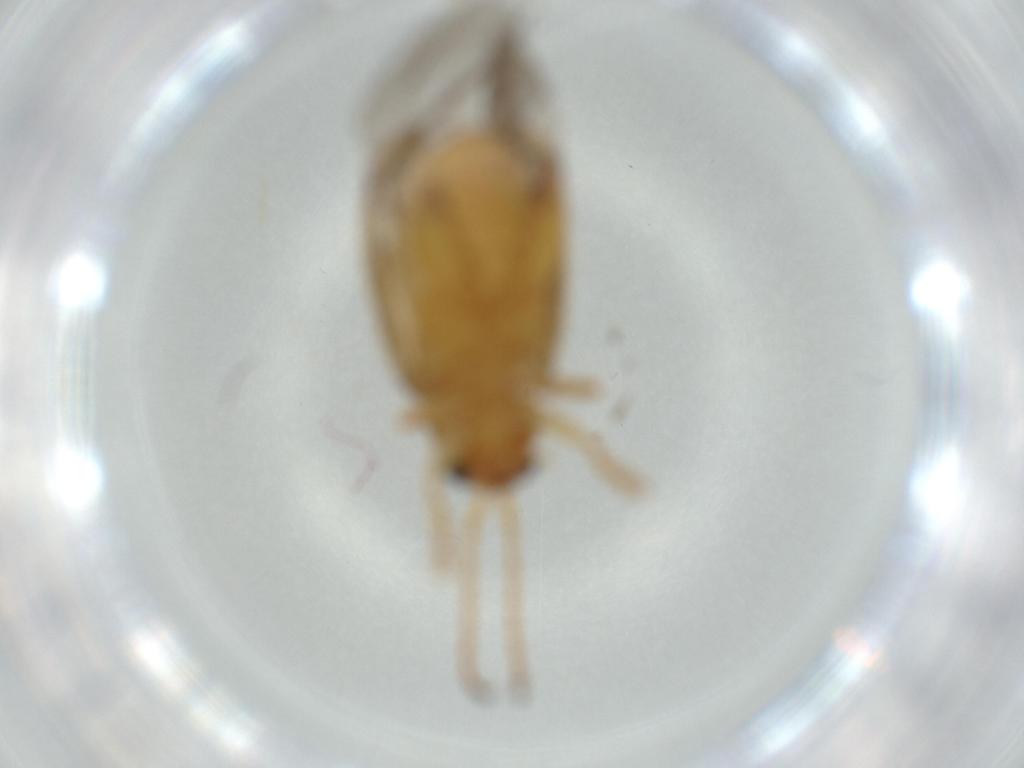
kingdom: Animalia
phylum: Arthropoda
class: Insecta
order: Coleoptera
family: Chrysomelidae
